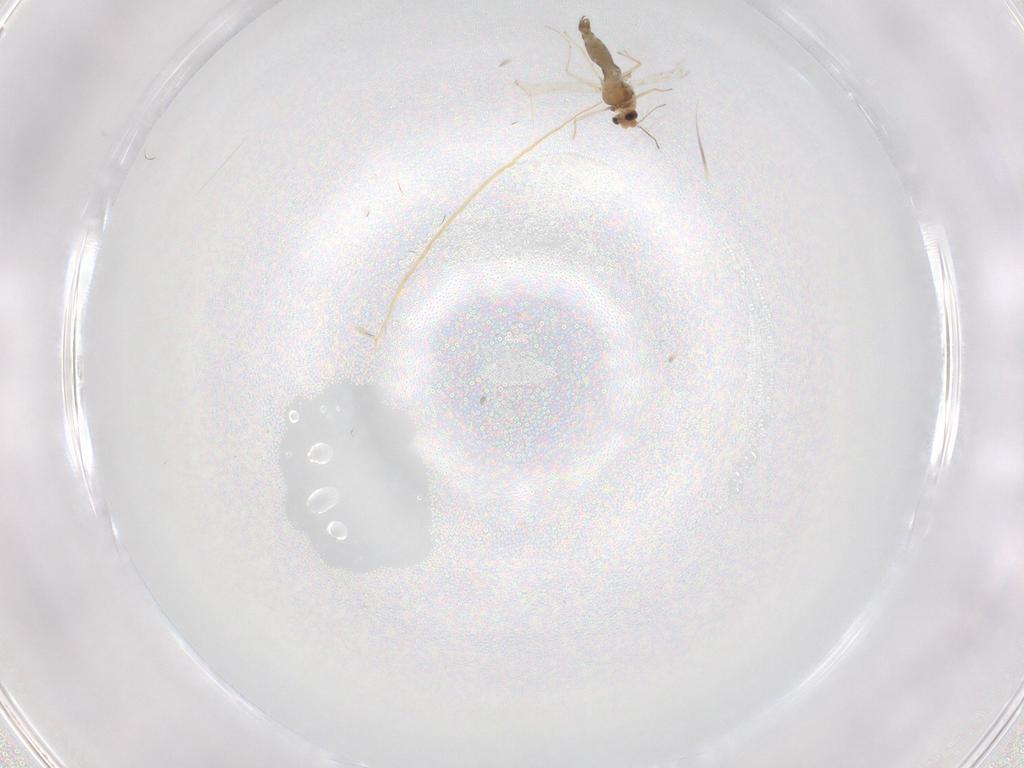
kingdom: Animalia
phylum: Arthropoda
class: Insecta
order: Diptera
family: Chironomidae
